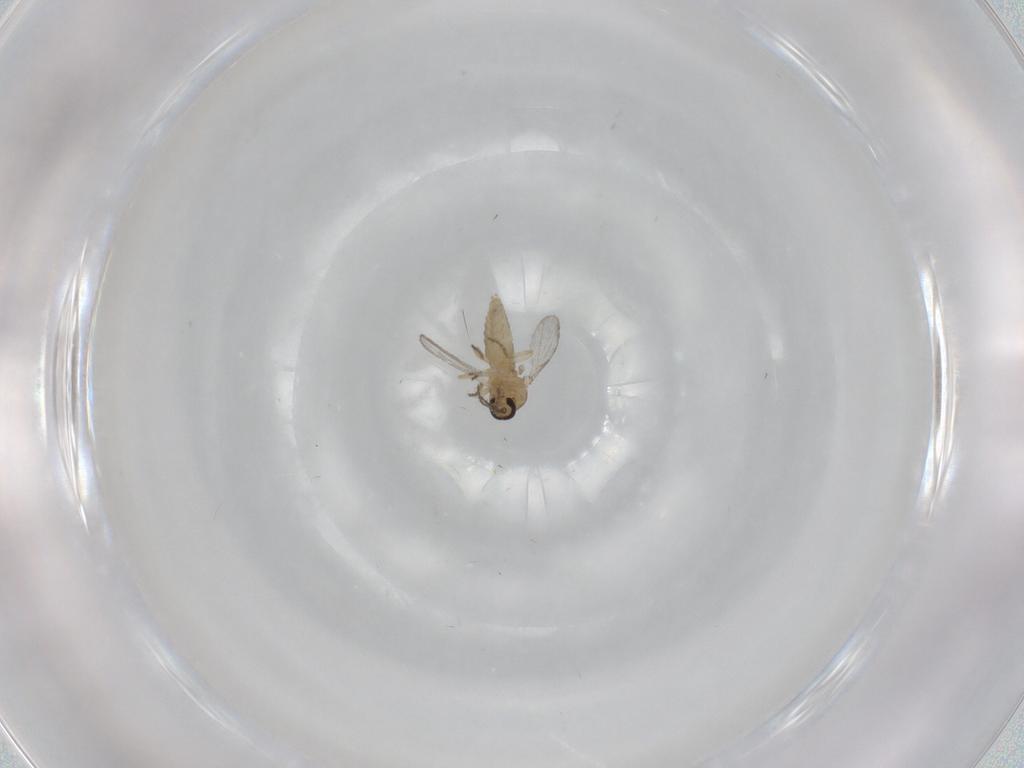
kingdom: Animalia
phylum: Arthropoda
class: Insecta
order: Diptera
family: Ceratopogonidae
